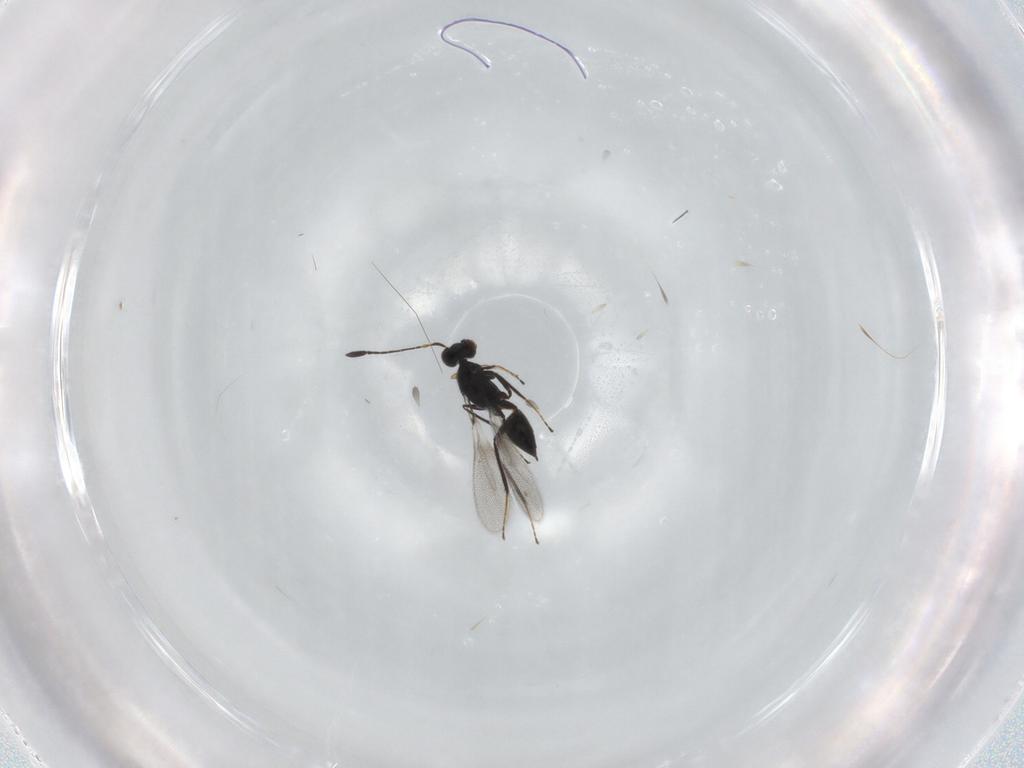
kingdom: Animalia
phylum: Arthropoda
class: Insecta
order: Hymenoptera
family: Mymaridae
